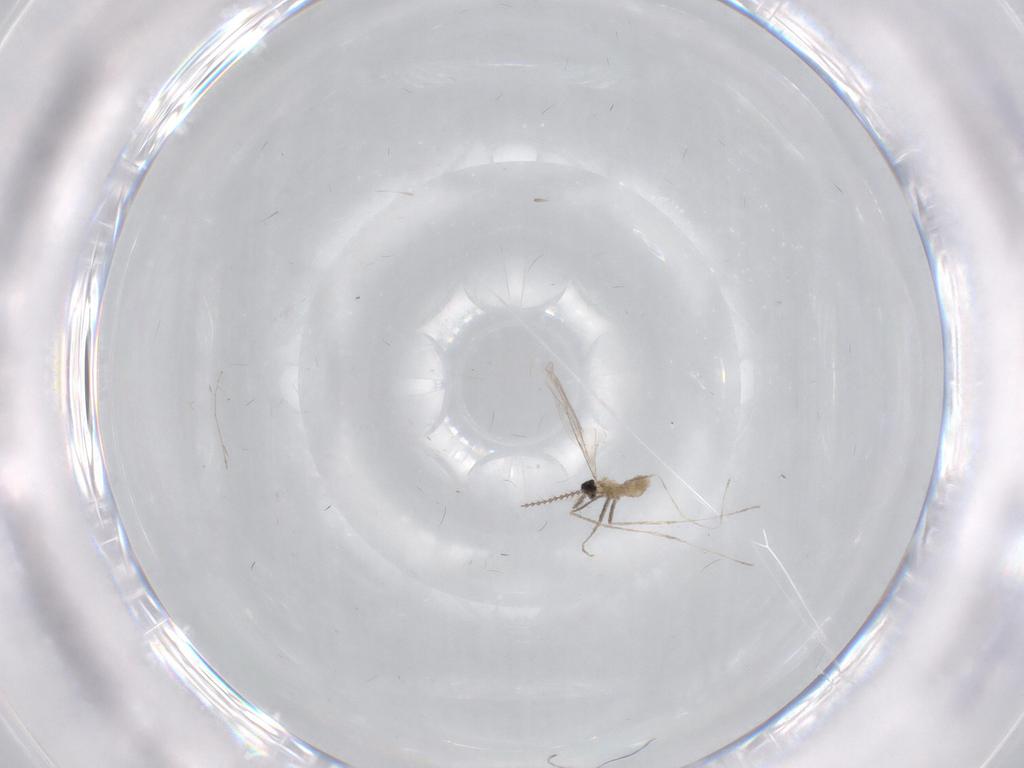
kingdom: Animalia
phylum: Arthropoda
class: Insecta
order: Diptera
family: Cecidomyiidae
